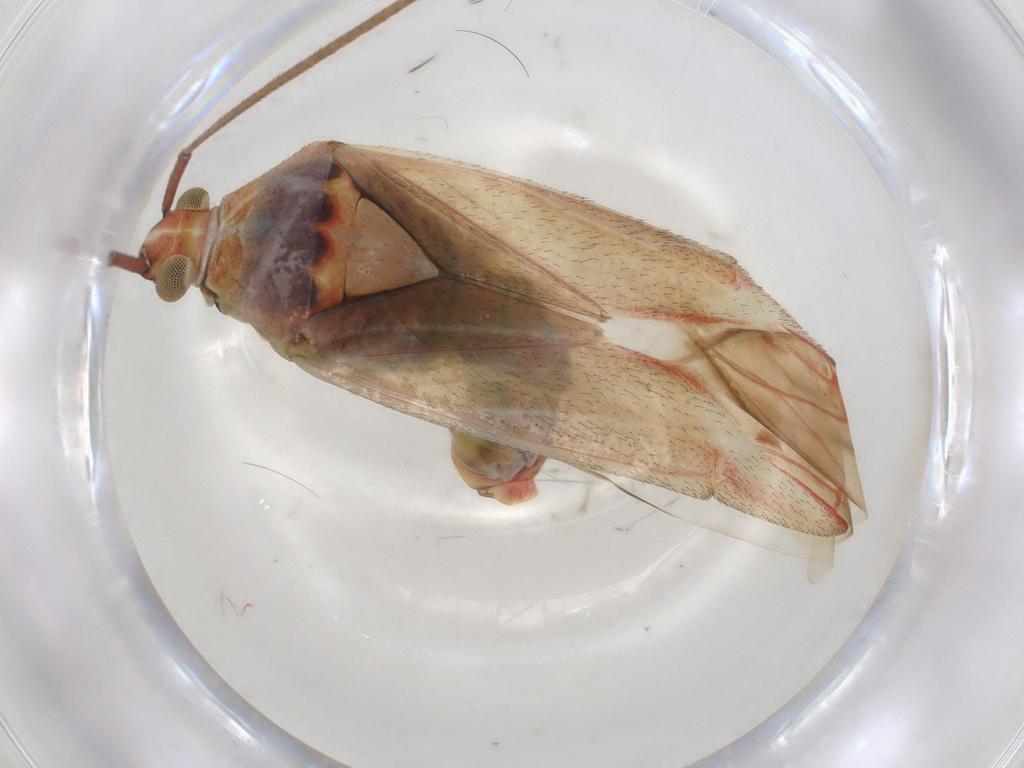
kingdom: Animalia
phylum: Arthropoda
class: Insecta
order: Hemiptera
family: Miridae
